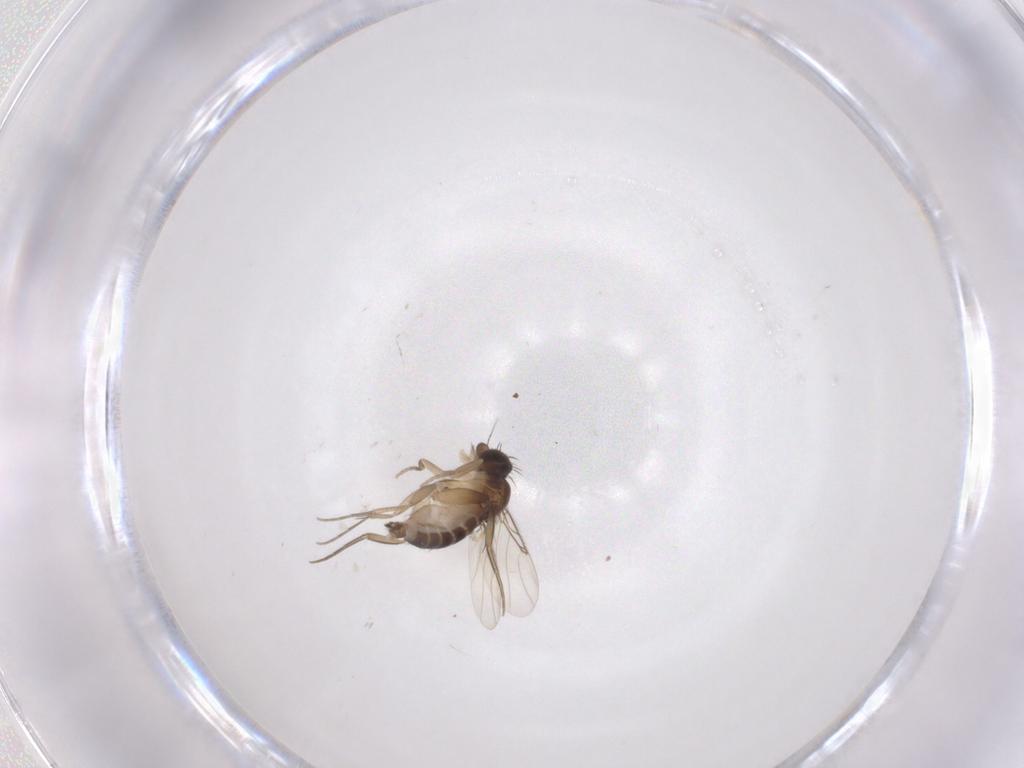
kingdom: Animalia
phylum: Arthropoda
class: Insecta
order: Diptera
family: Phoridae
